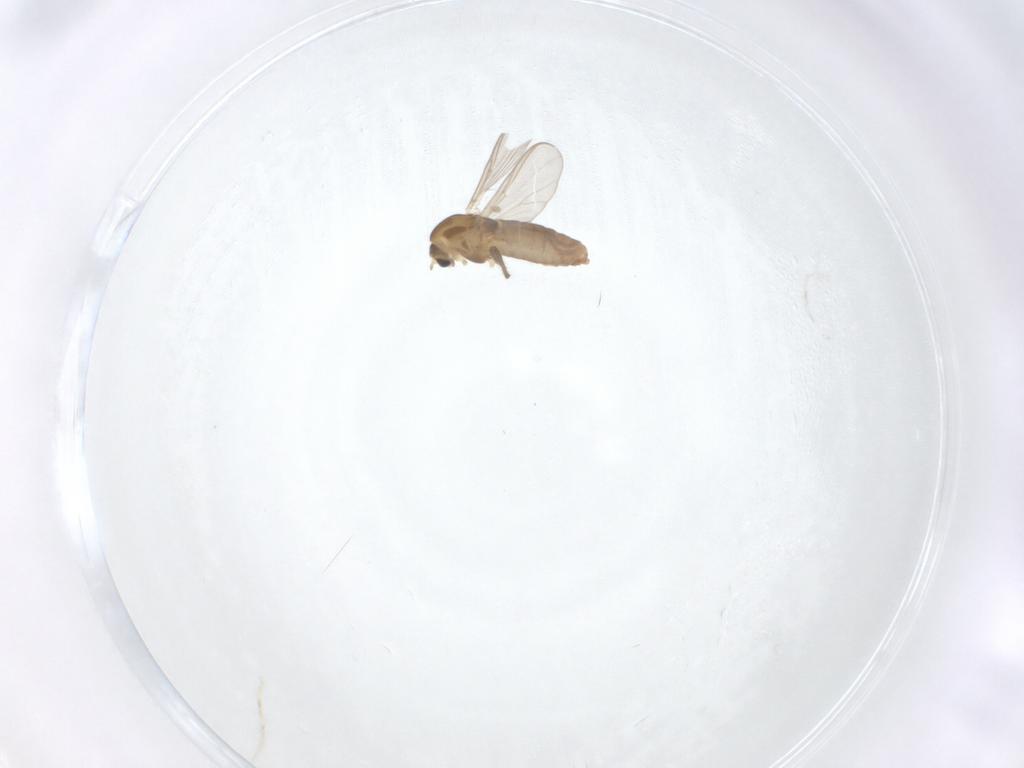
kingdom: Animalia
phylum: Arthropoda
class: Insecta
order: Diptera
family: Chironomidae
